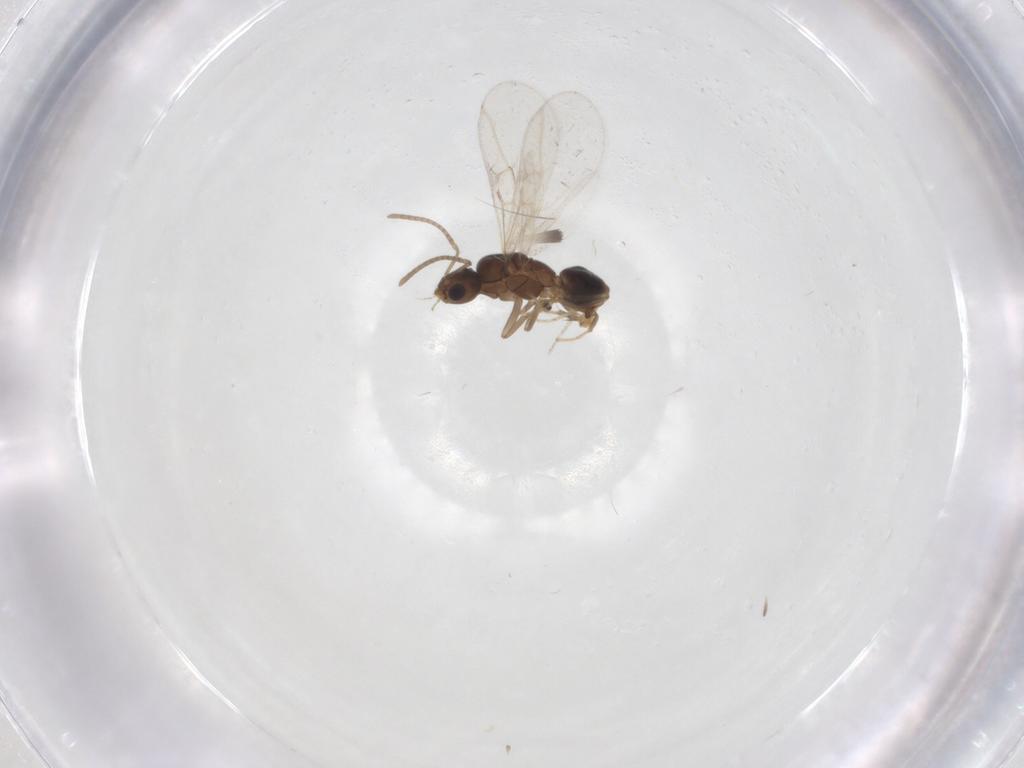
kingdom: Animalia
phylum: Arthropoda
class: Insecta
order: Hymenoptera
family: Formicidae
